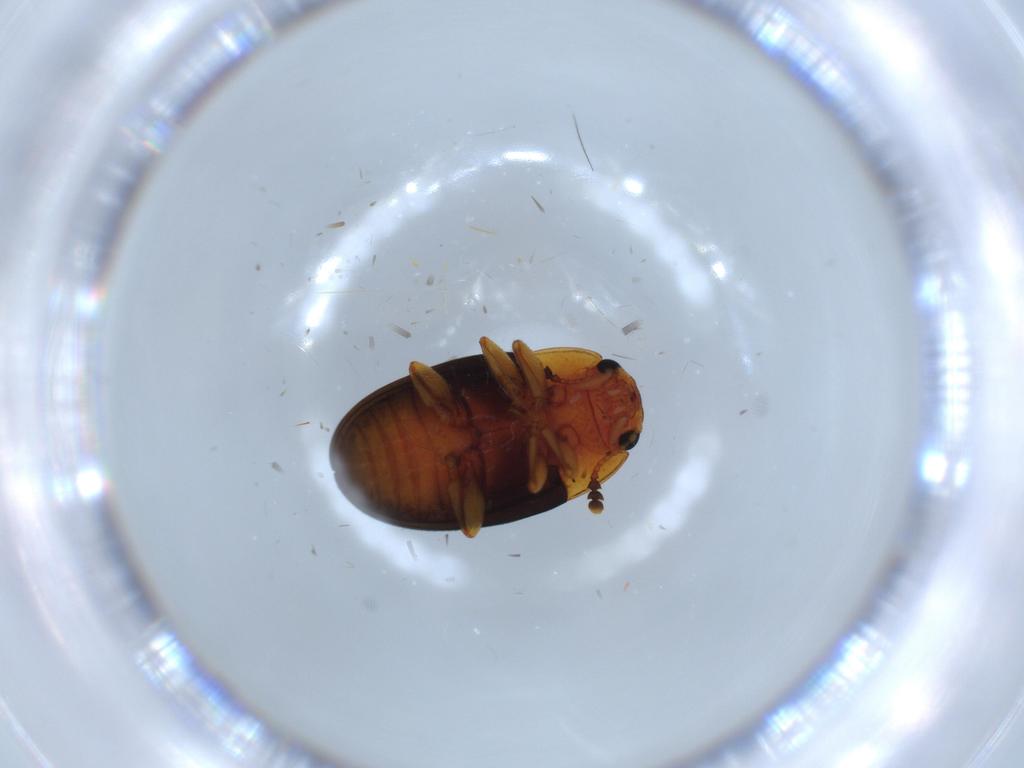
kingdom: Animalia
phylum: Arthropoda
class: Insecta
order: Coleoptera
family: Erotylidae
